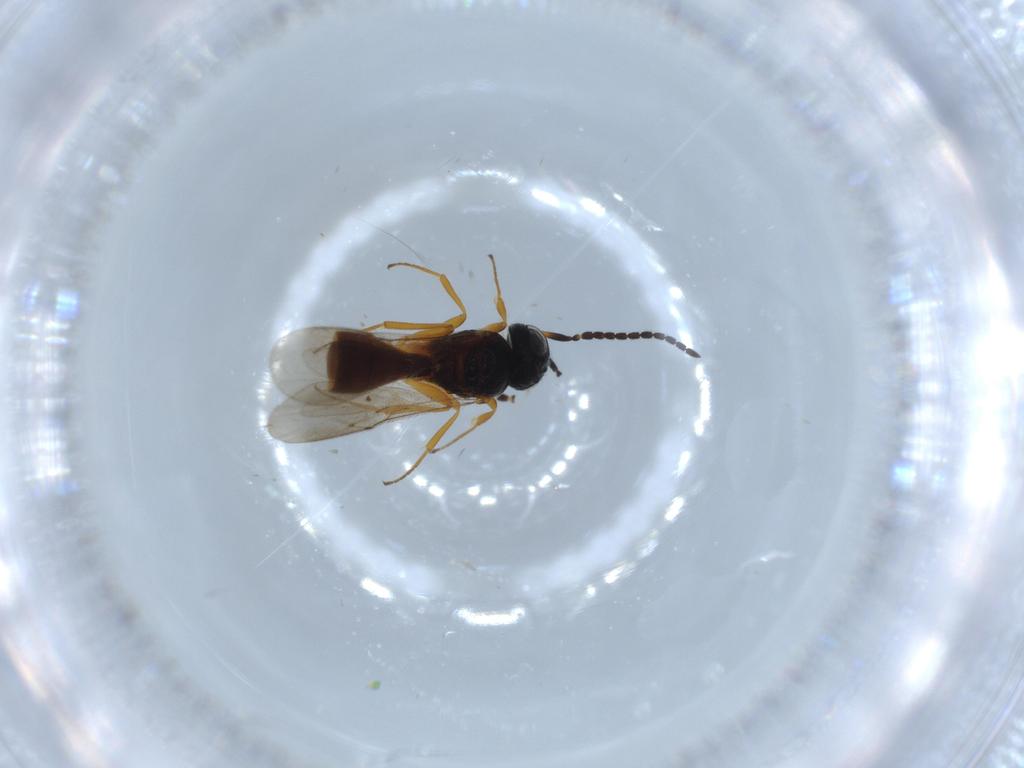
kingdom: Animalia
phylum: Arthropoda
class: Insecta
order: Hymenoptera
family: Scelionidae
